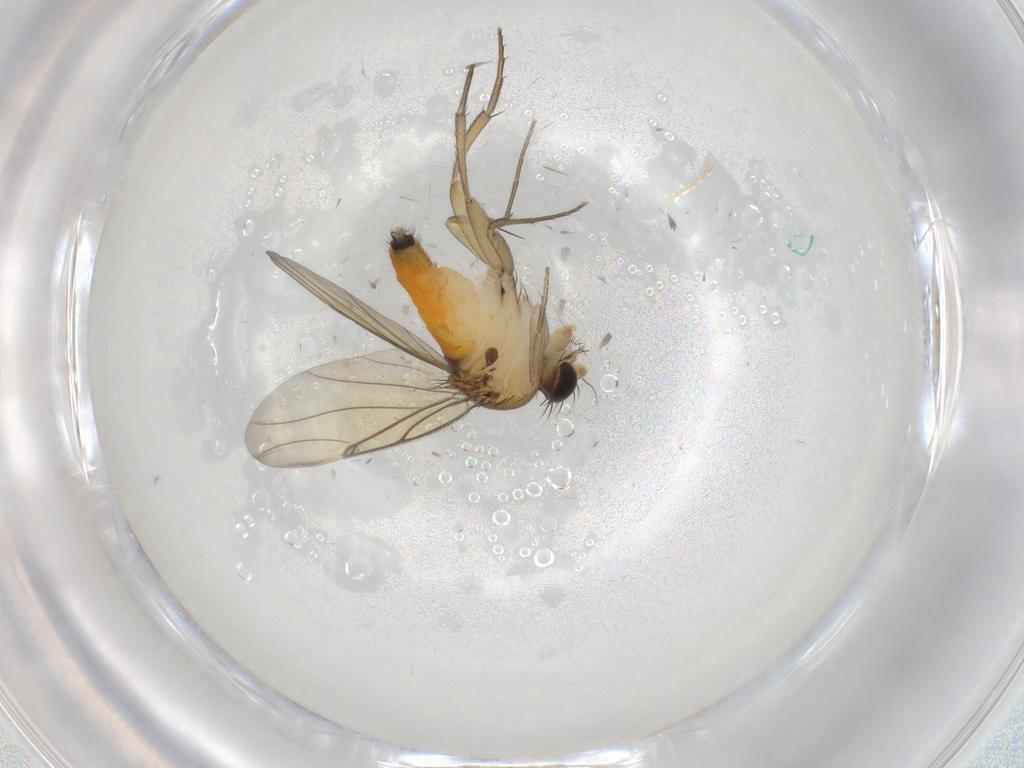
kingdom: Animalia
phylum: Arthropoda
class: Insecta
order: Diptera
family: Phoridae
